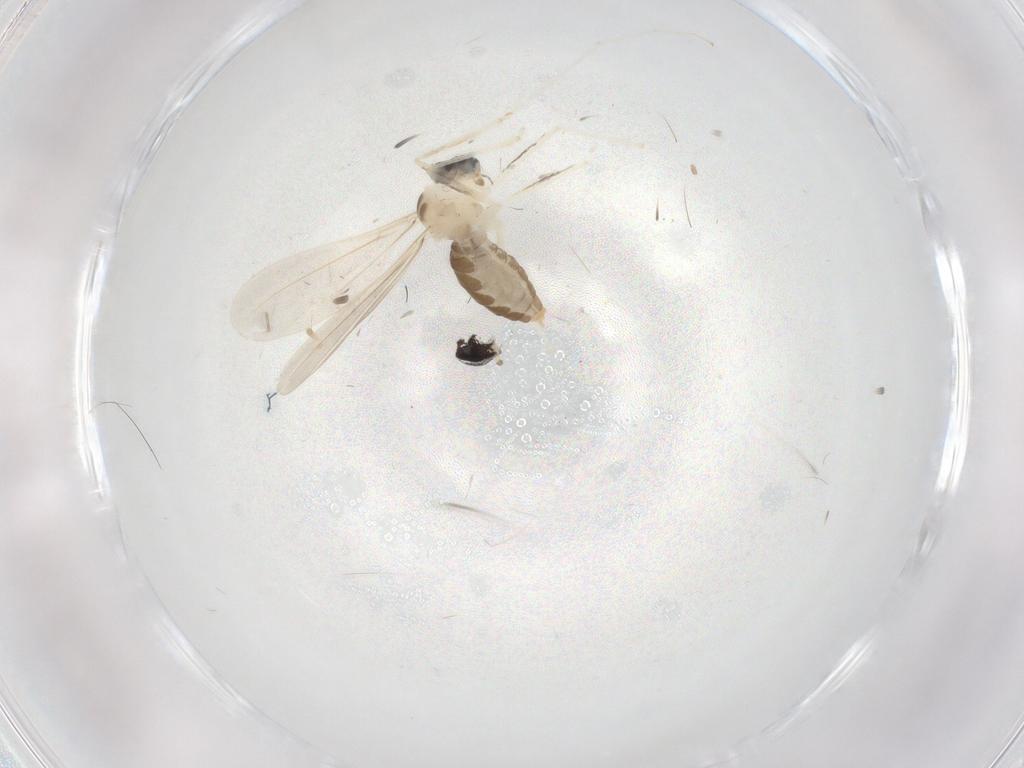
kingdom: Animalia
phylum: Arthropoda
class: Insecta
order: Diptera
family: Cecidomyiidae
